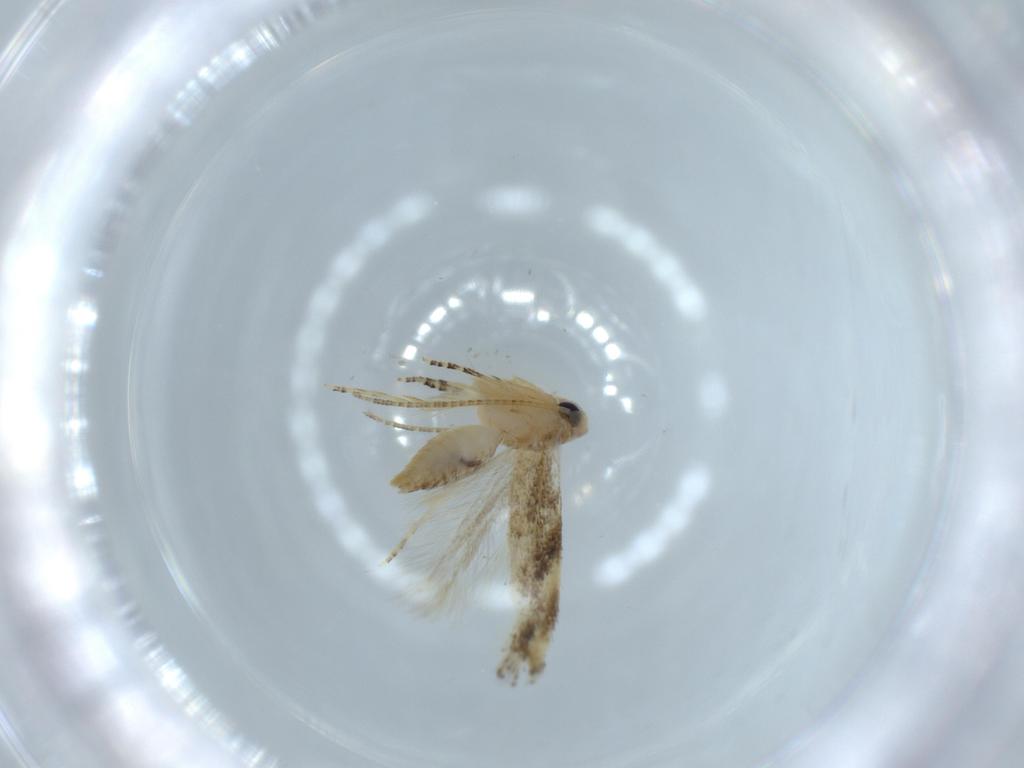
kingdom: Animalia
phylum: Arthropoda
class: Insecta
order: Lepidoptera
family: Bucculatricidae
